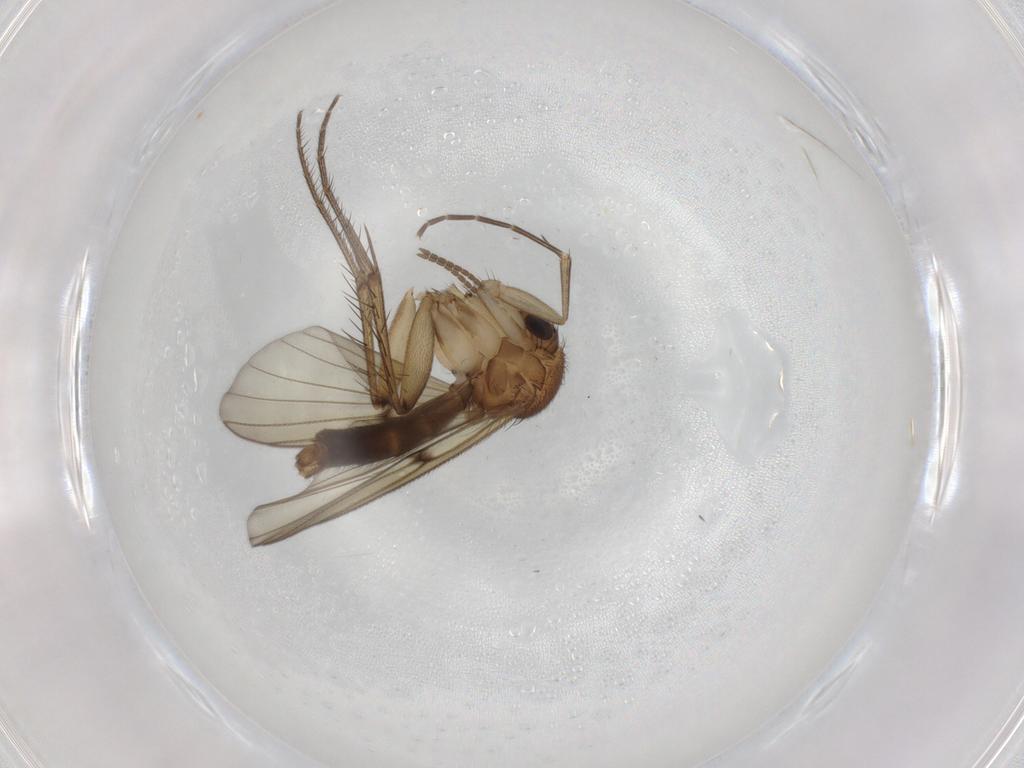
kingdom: Animalia
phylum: Arthropoda
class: Insecta
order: Diptera
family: Mycetophilidae
